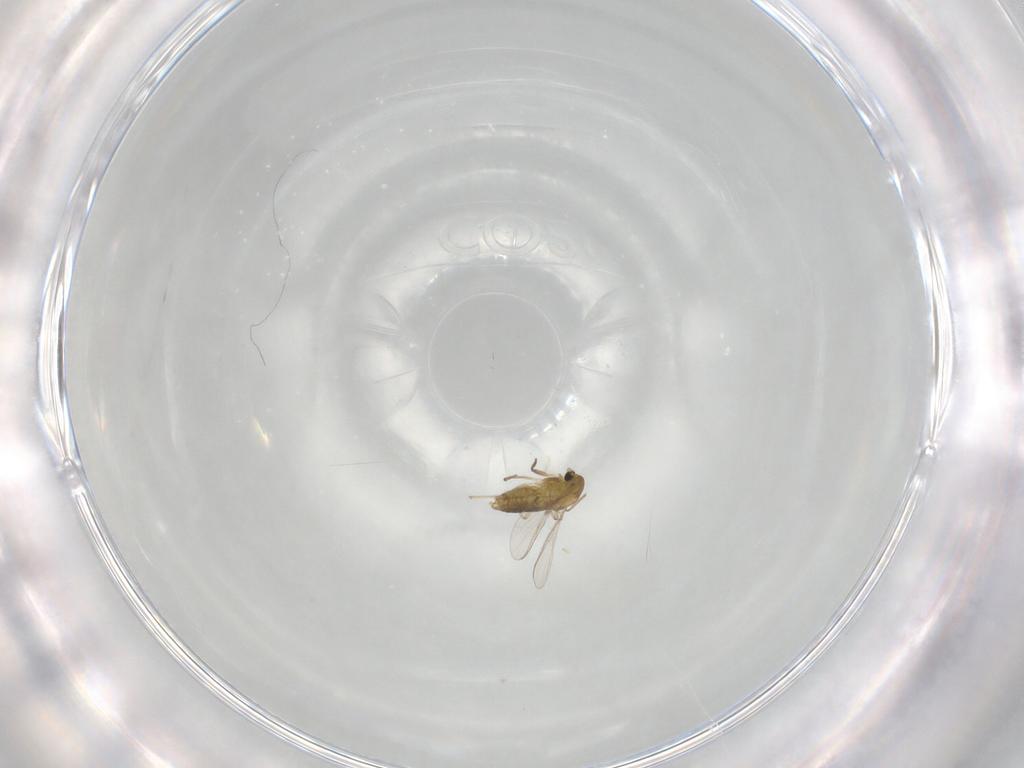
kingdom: Animalia
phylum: Arthropoda
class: Insecta
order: Diptera
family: Chironomidae
